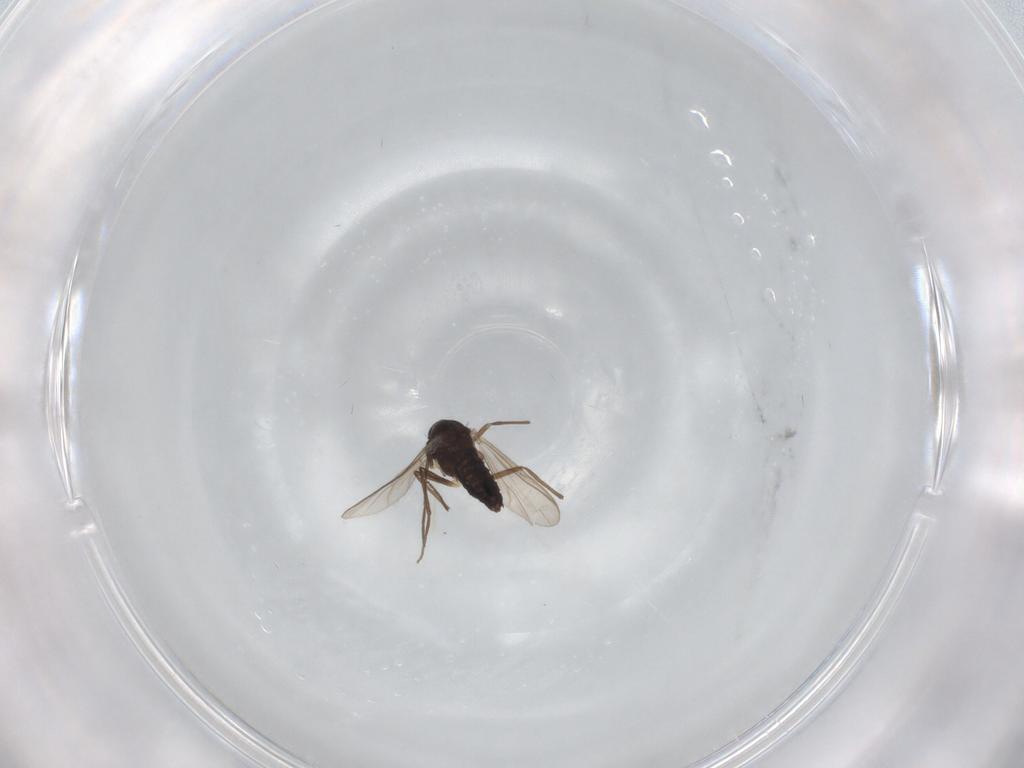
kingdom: Animalia
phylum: Arthropoda
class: Insecta
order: Diptera
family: Chironomidae
